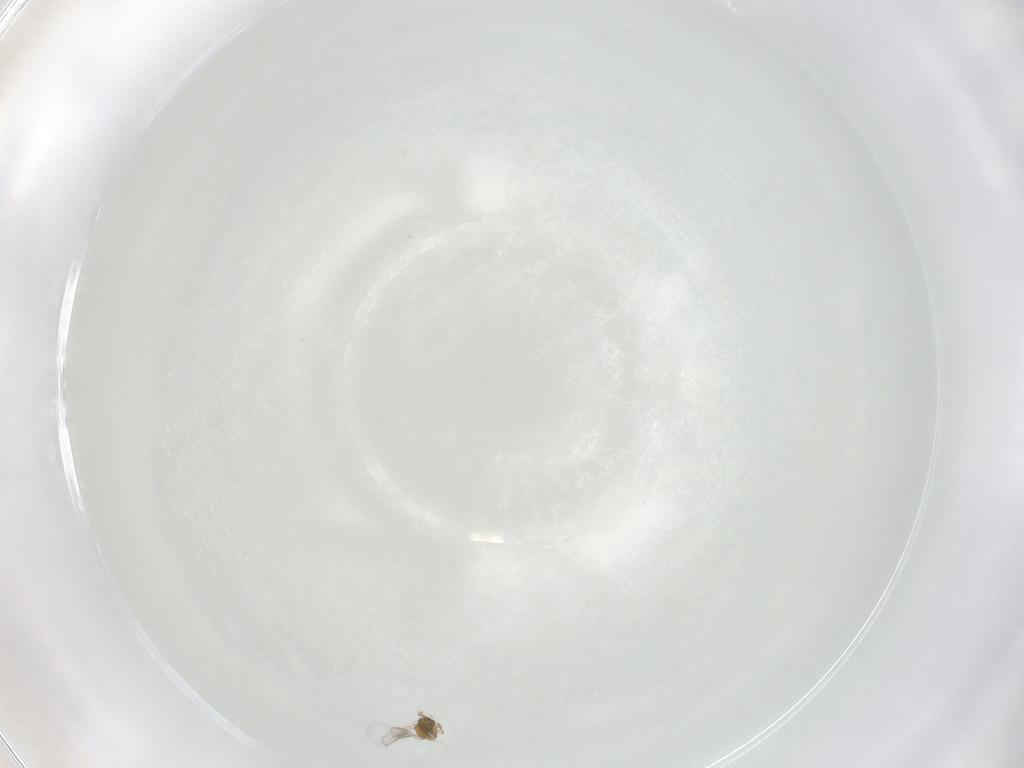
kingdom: Animalia
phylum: Arthropoda
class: Insecta
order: Hymenoptera
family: Trichogrammatidae
